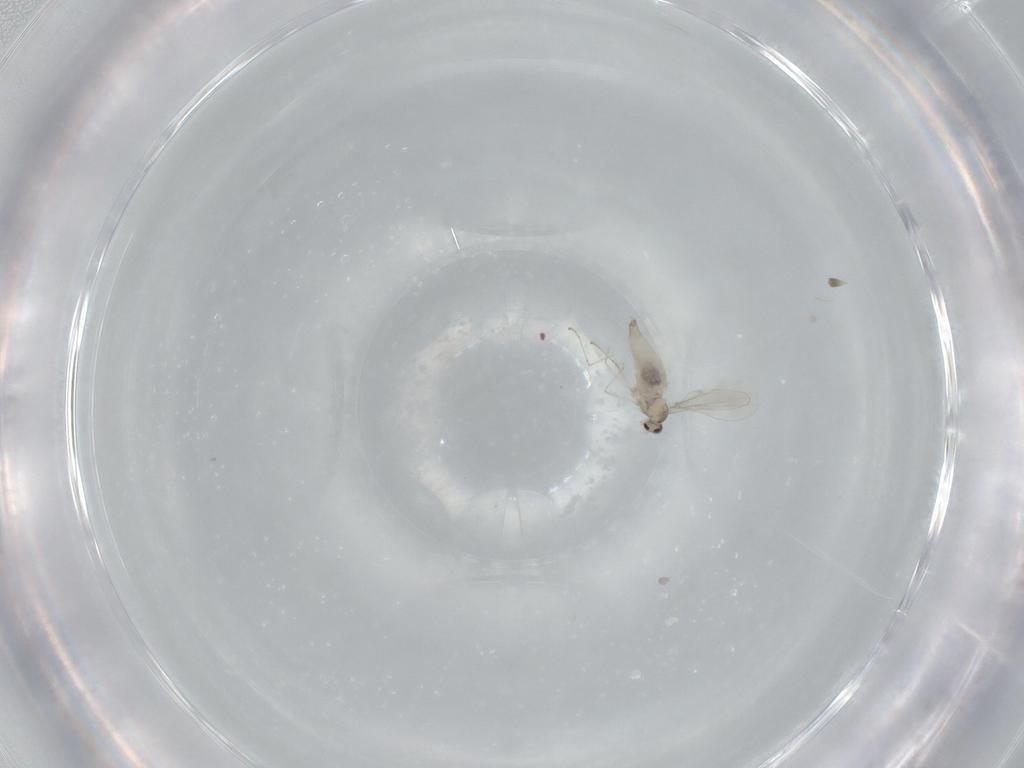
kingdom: Animalia
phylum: Arthropoda
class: Insecta
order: Diptera
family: Cecidomyiidae
